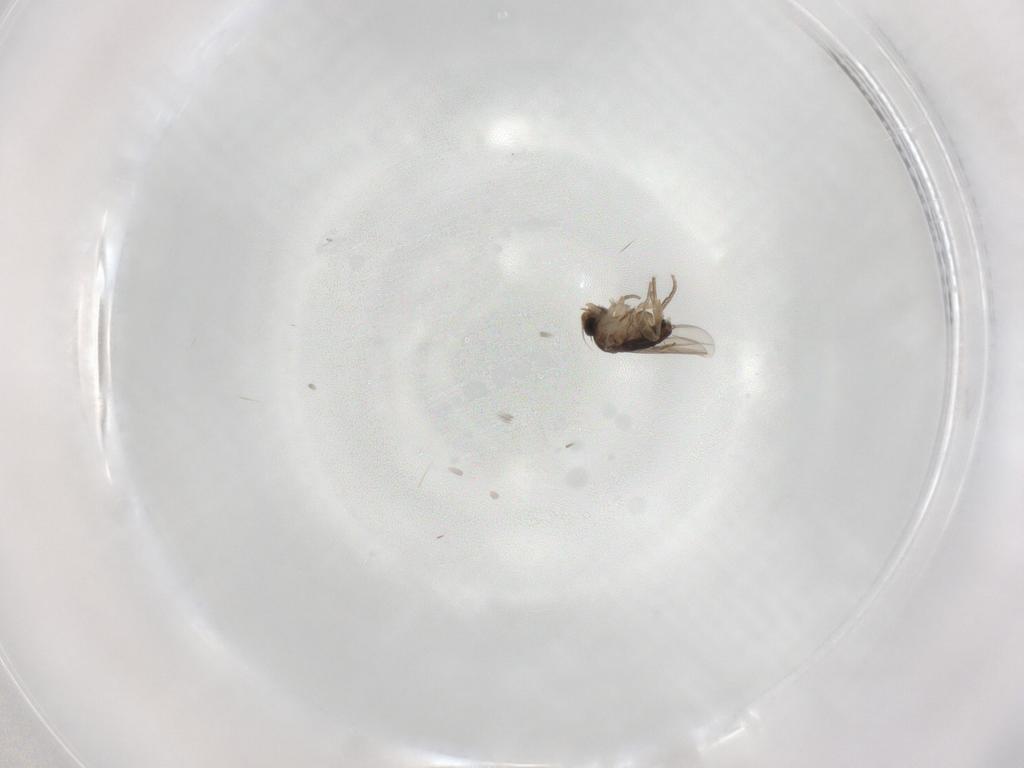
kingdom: Animalia
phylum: Arthropoda
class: Insecta
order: Diptera
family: Phoridae
